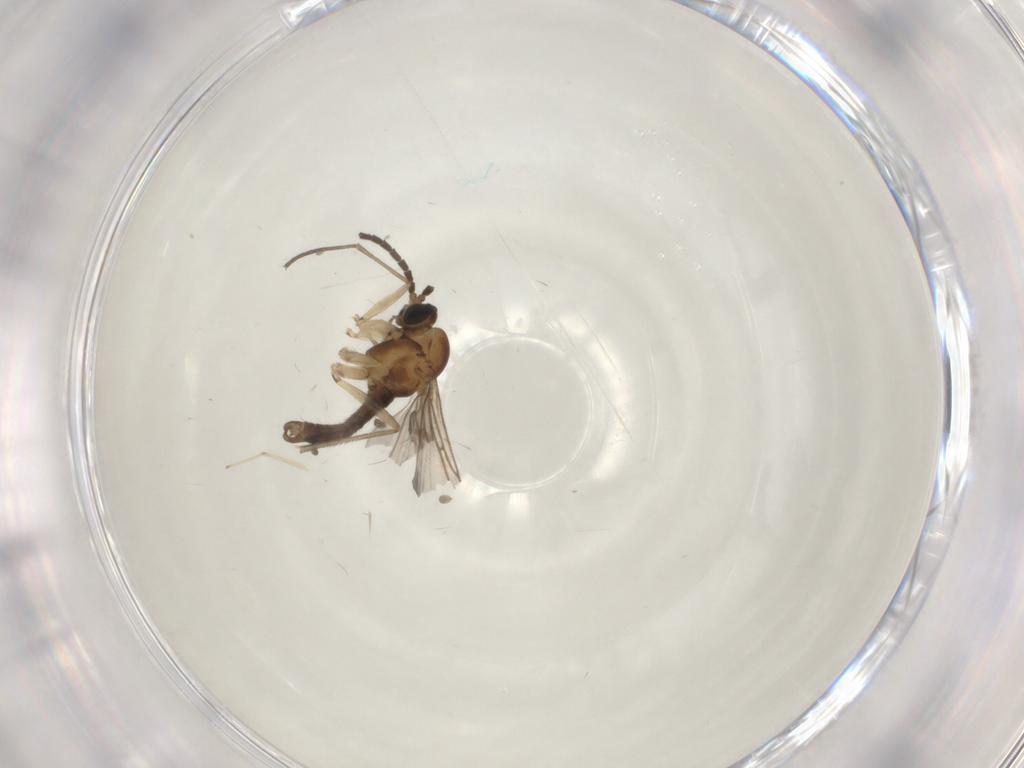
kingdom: Animalia
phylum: Arthropoda
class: Insecta
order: Diptera
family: Sciaridae
